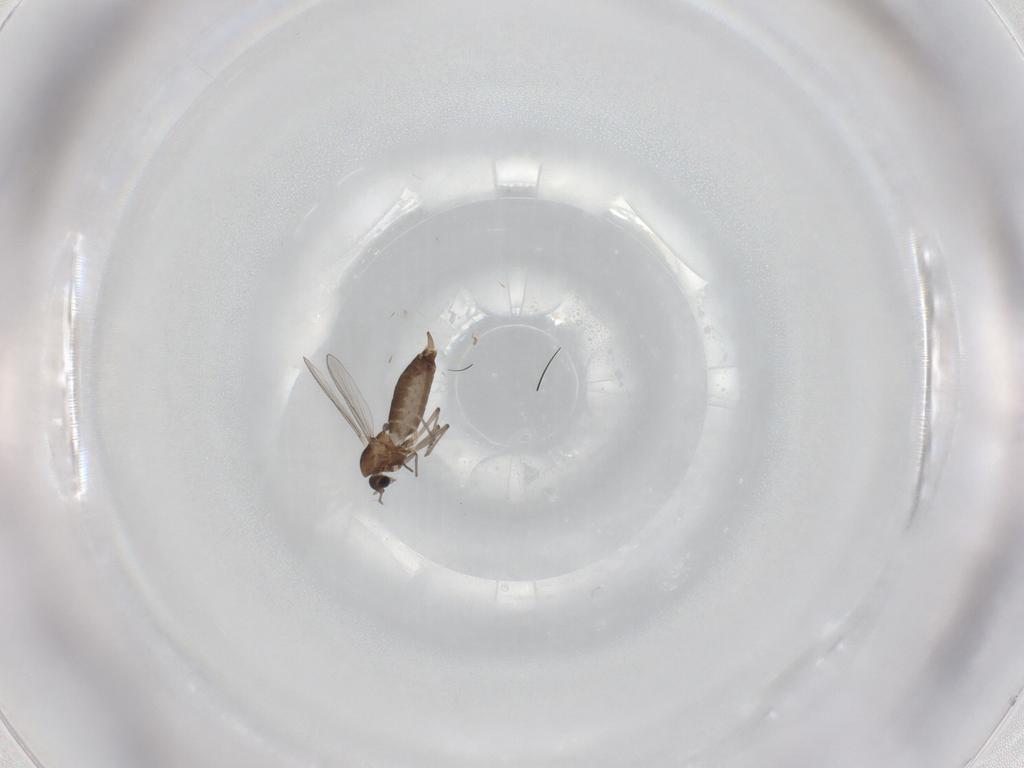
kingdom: Animalia
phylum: Arthropoda
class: Insecta
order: Diptera
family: Chironomidae
